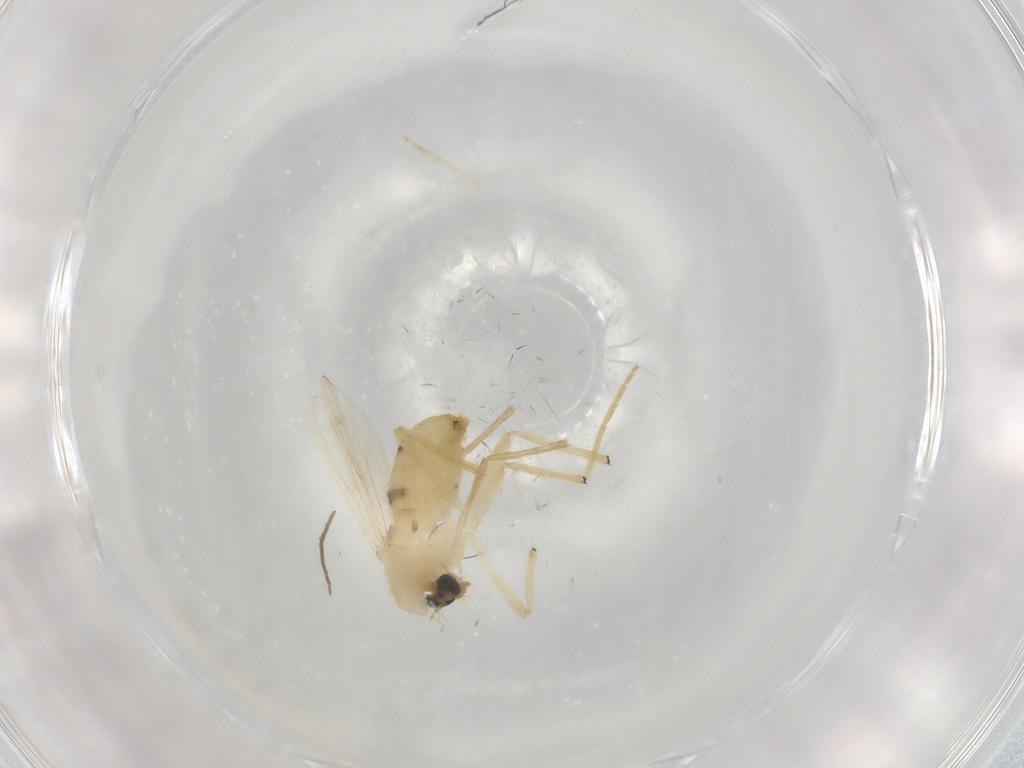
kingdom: Animalia
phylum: Arthropoda
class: Insecta
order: Diptera
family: Chironomidae
